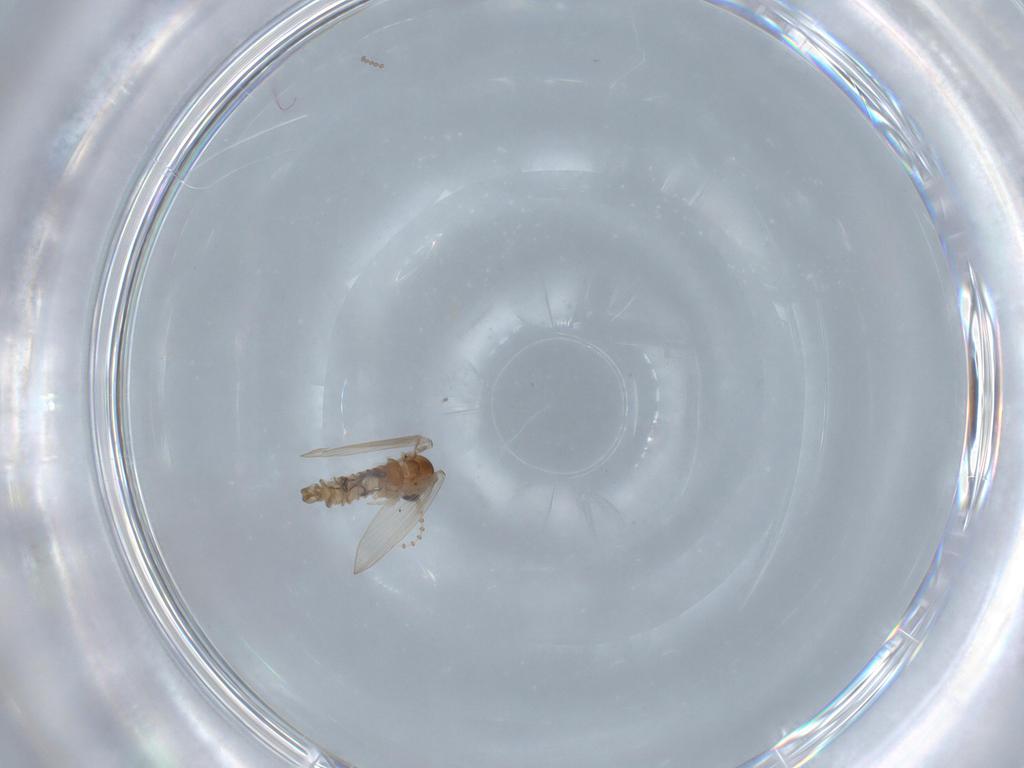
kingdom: Animalia
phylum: Arthropoda
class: Insecta
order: Diptera
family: Psychodidae
